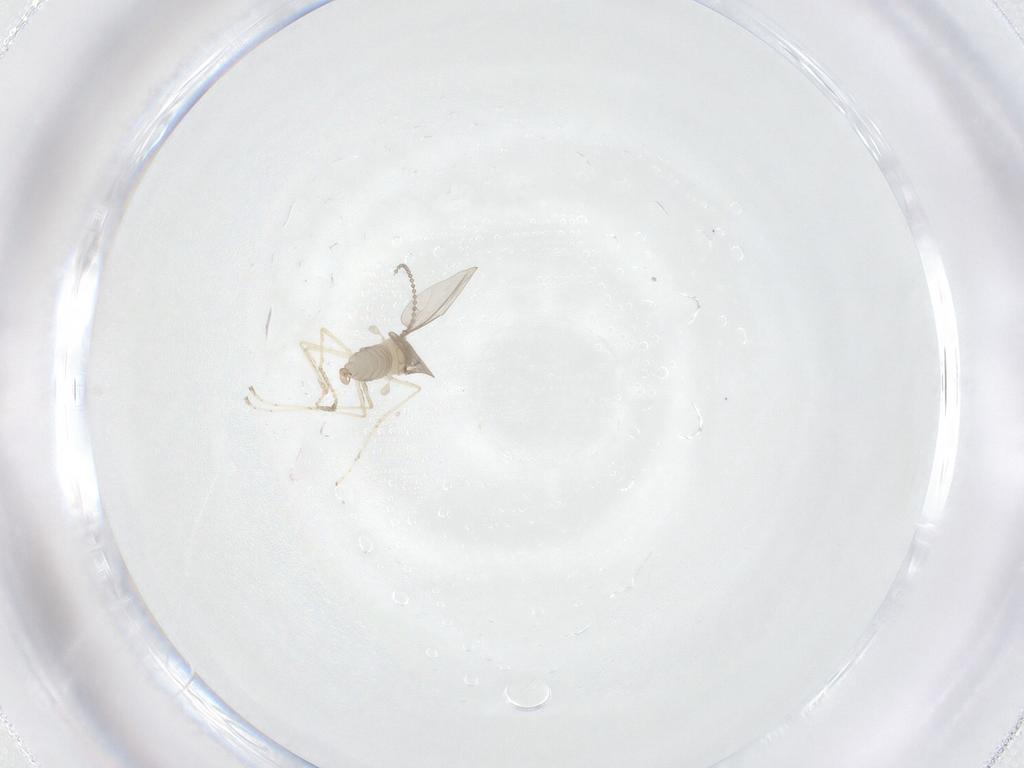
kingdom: Animalia
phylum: Arthropoda
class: Insecta
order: Diptera
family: Cecidomyiidae
